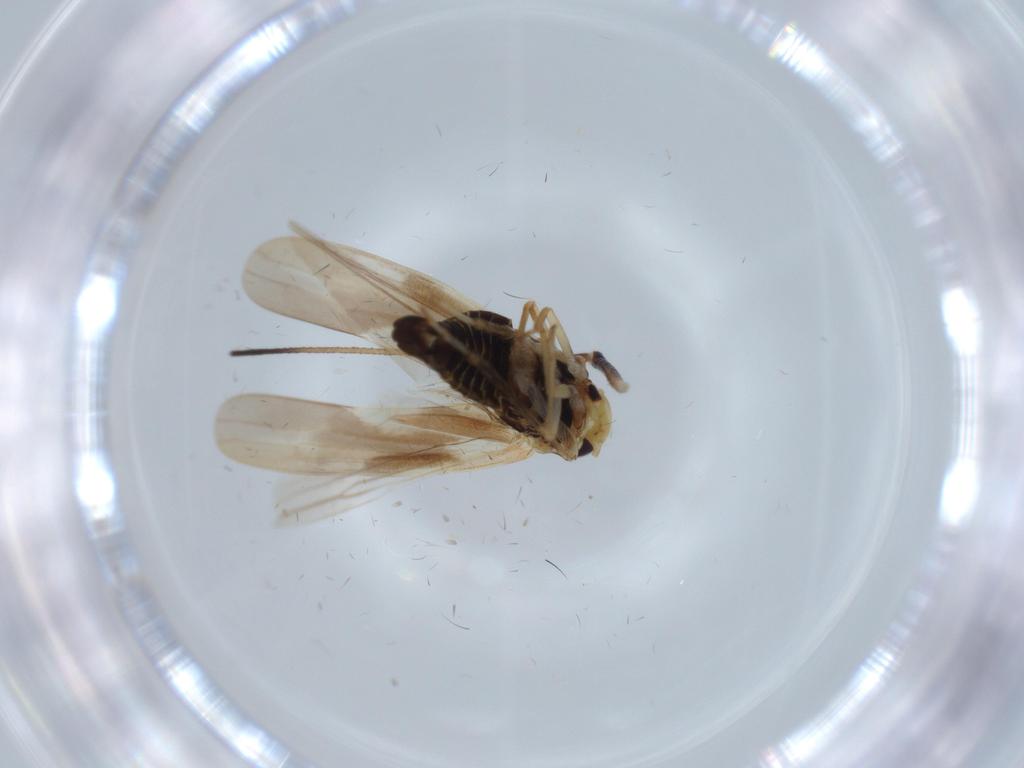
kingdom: Animalia
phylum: Arthropoda
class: Insecta
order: Hemiptera
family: Cicadellidae
